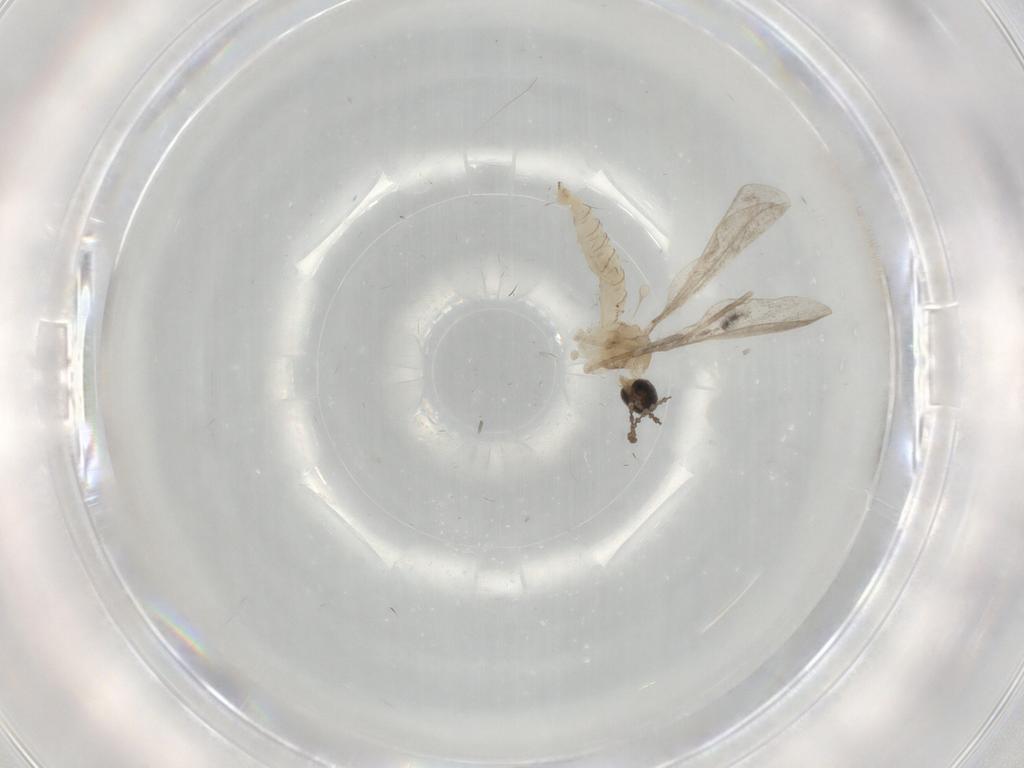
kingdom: Animalia
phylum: Arthropoda
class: Insecta
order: Diptera
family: Cecidomyiidae
